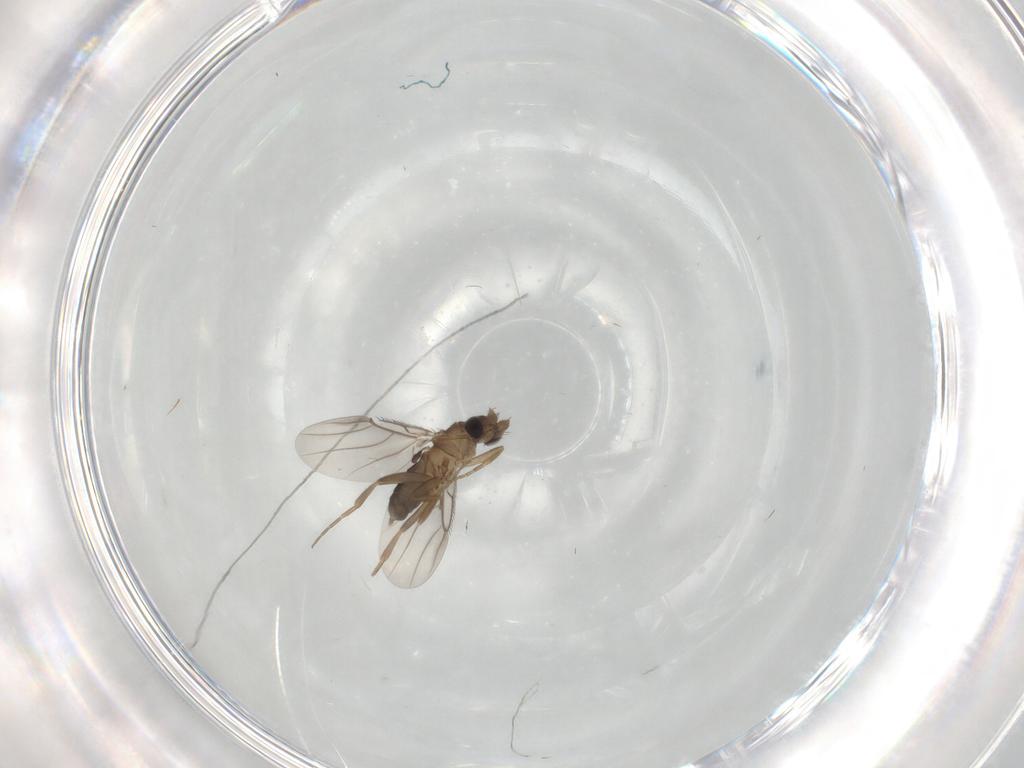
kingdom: Animalia
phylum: Arthropoda
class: Insecta
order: Diptera
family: Phoridae
